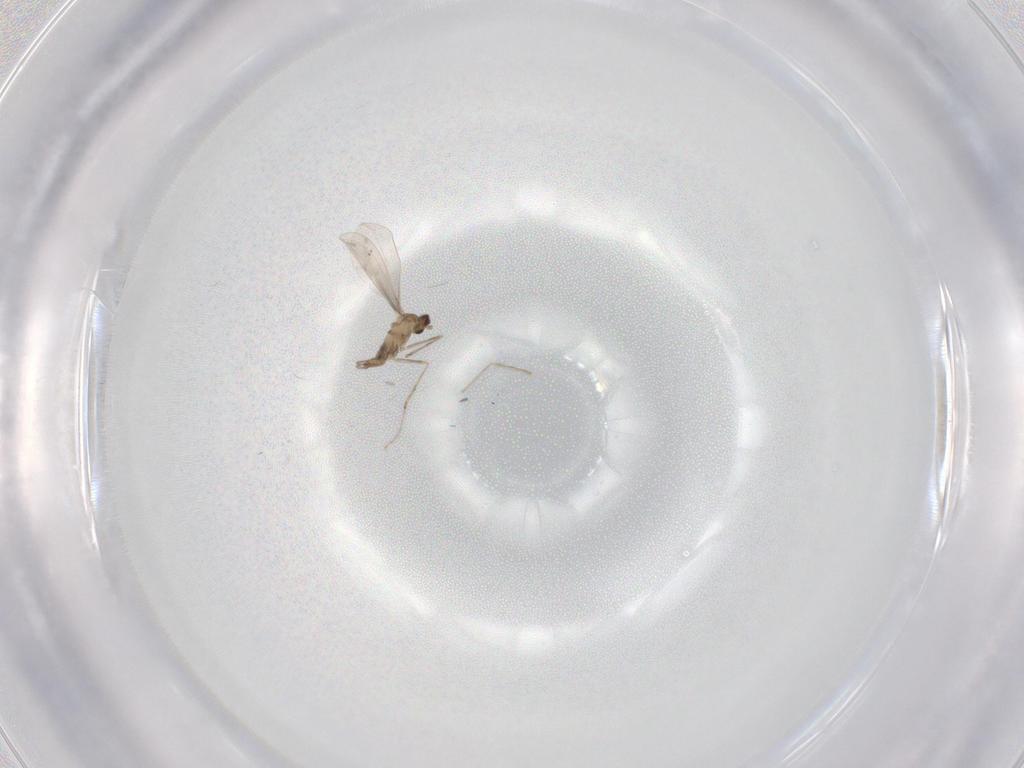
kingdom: Animalia
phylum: Arthropoda
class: Insecta
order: Diptera
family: Cecidomyiidae
